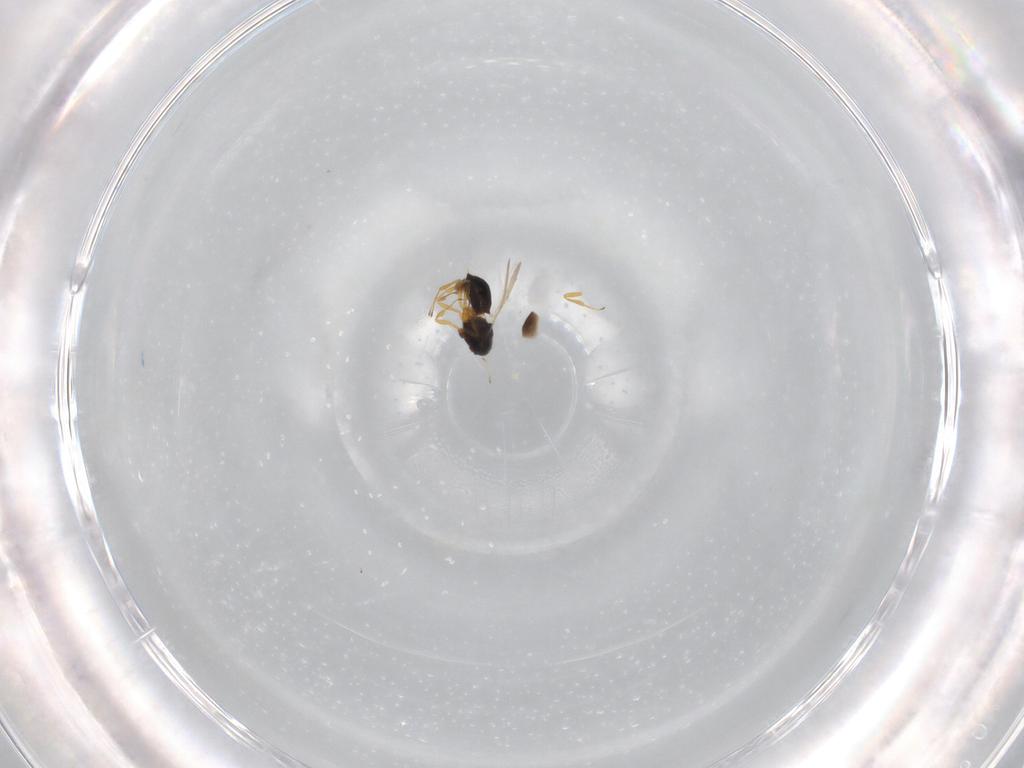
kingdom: Animalia
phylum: Arthropoda
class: Insecta
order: Hymenoptera
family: Scelionidae
